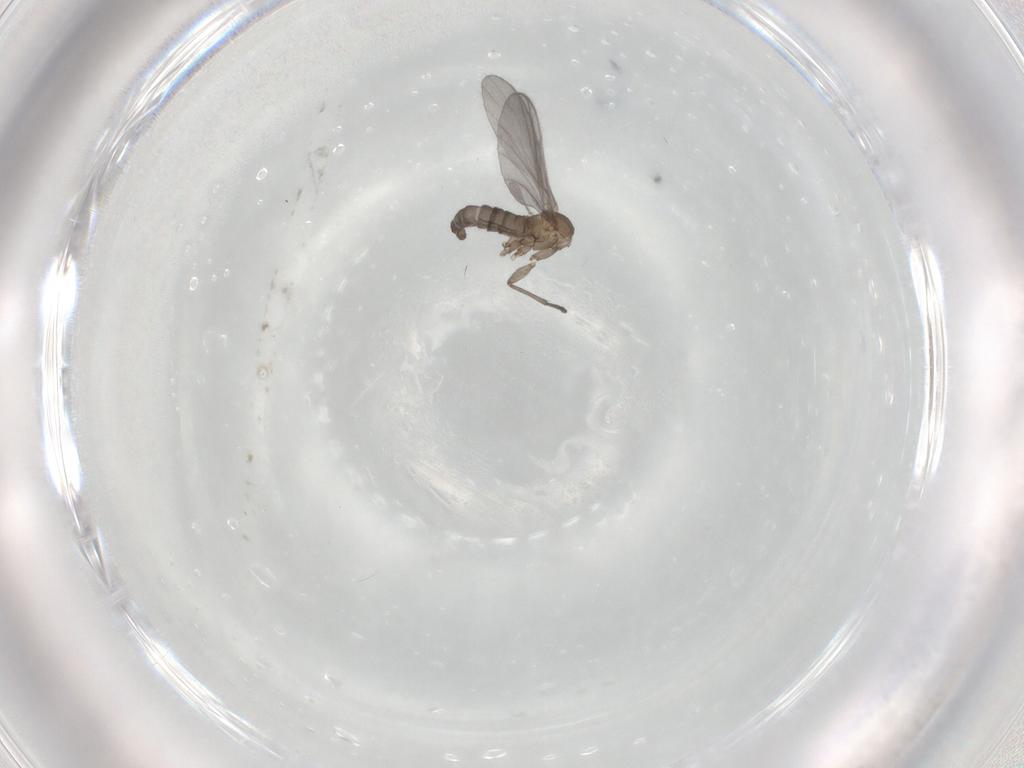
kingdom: Animalia
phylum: Arthropoda
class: Insecta
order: Diptera
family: Chironomidae
